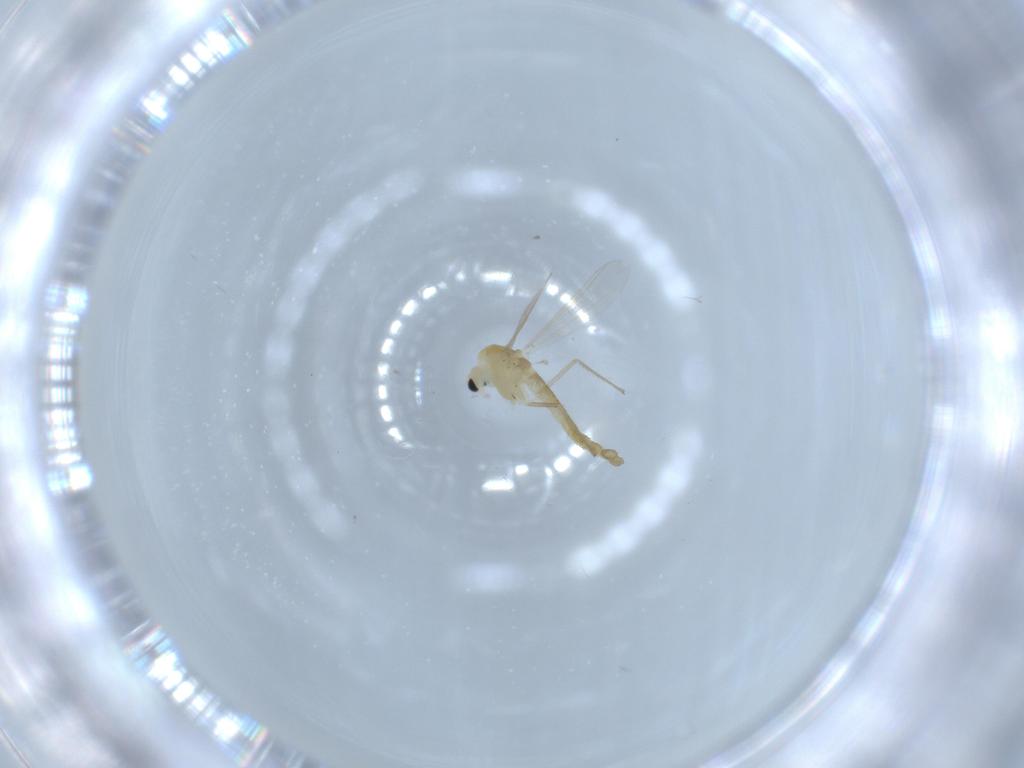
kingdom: Animalia
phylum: Arthropoda
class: Insecta
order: Diptera
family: Chironomidae
